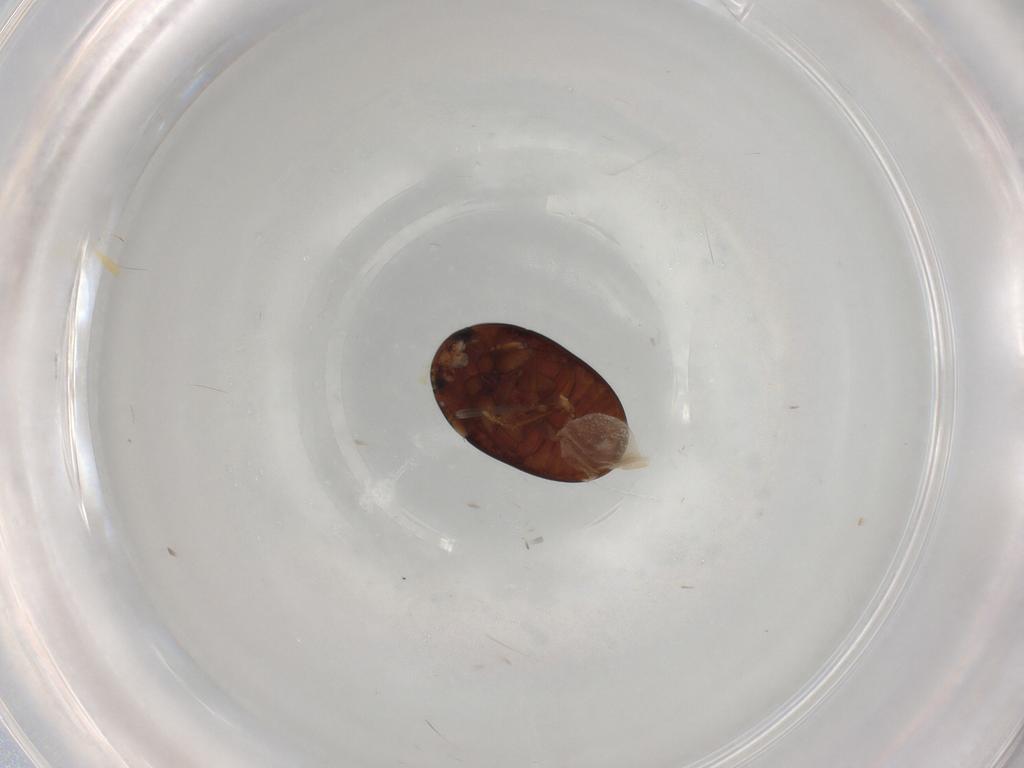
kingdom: Animalia
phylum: Arthropoda
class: Insecta
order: Coleoptera
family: Phalacridae
